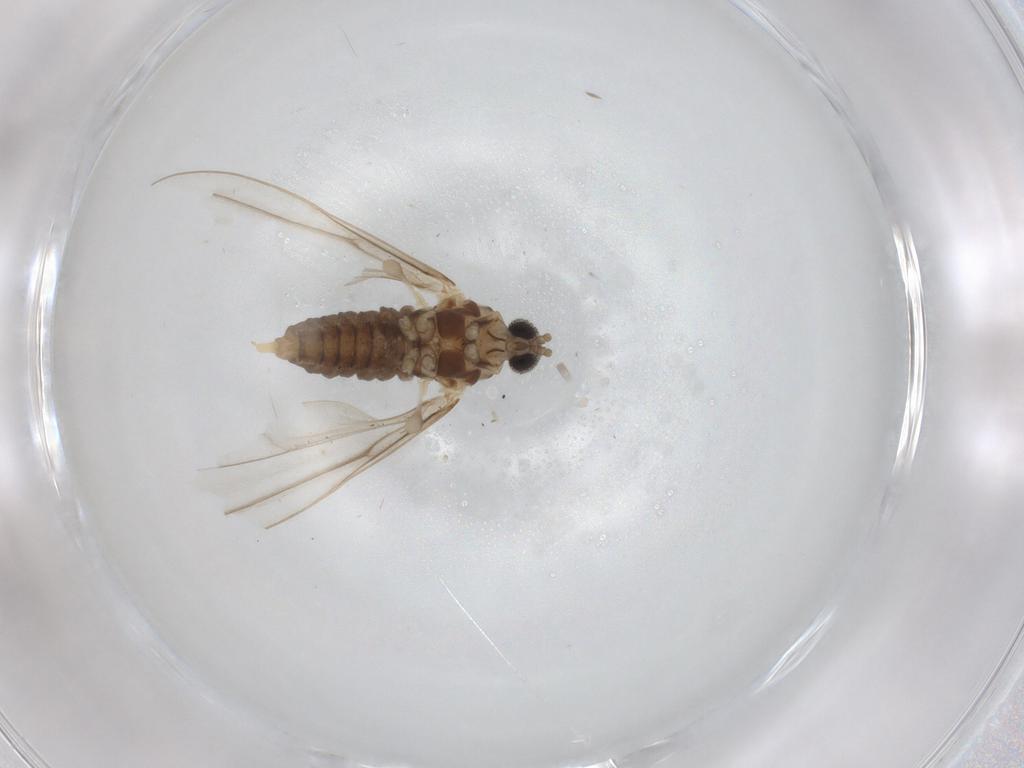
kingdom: Animalia
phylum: Arthropoda
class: Insecta
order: Diptera
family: Cecidomyiidae
